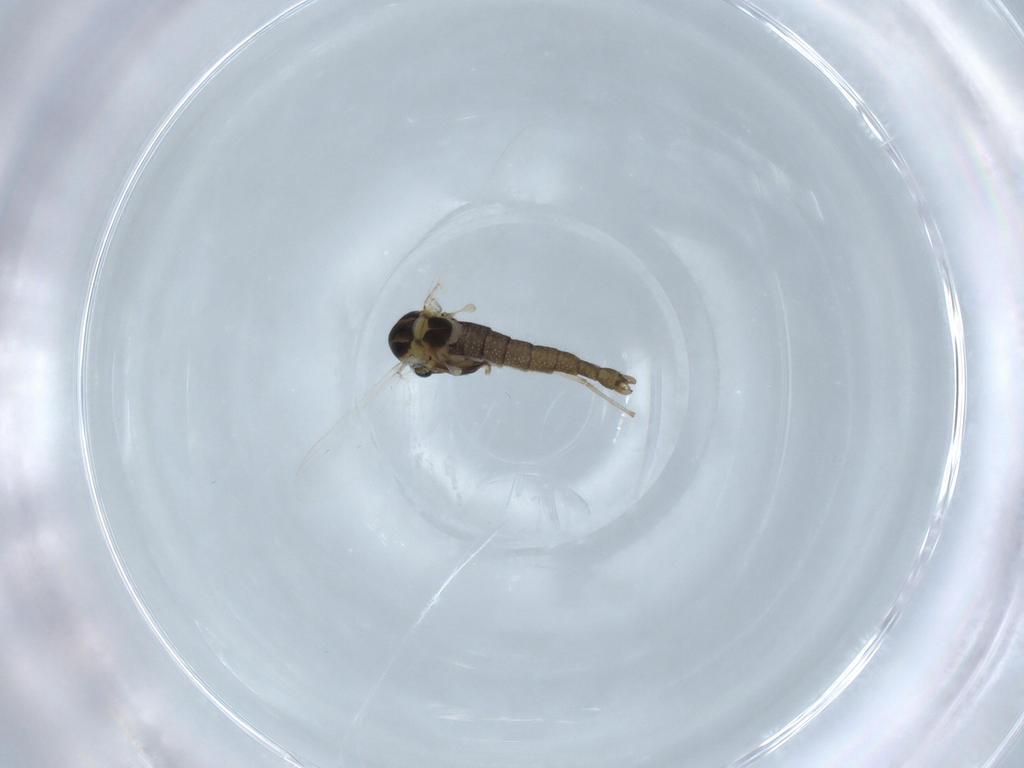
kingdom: Animalia
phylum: Arthropoda
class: Insecta
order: Diptera
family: Chironomidae
